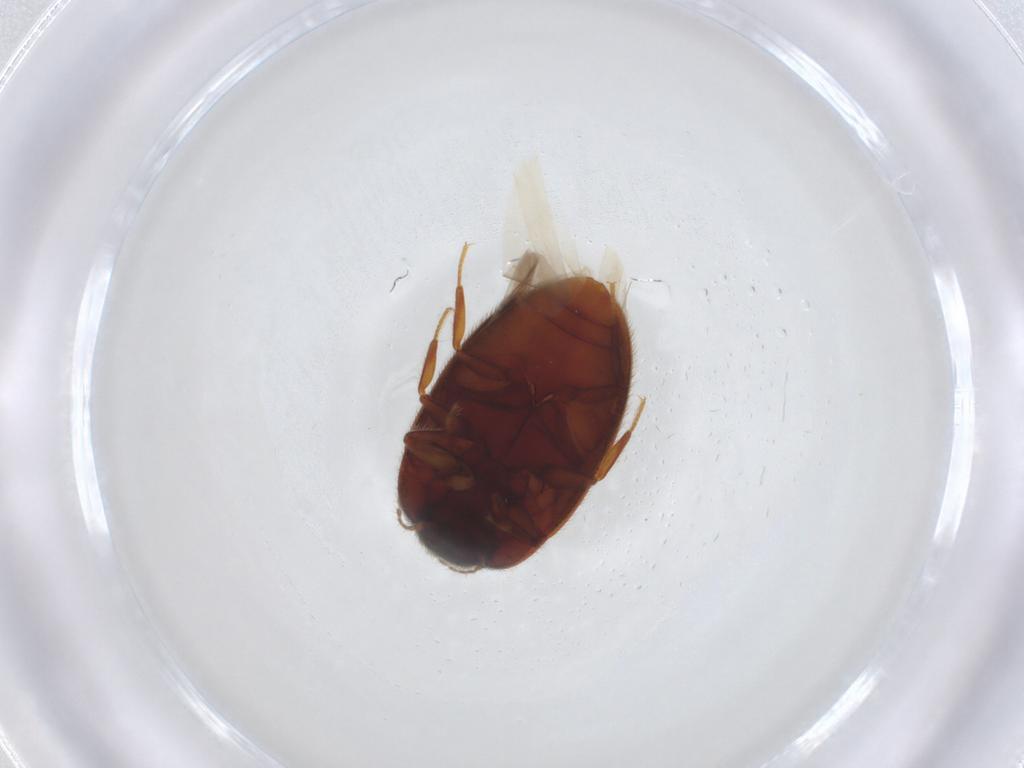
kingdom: Animalia
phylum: Arthropoda
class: Insecta
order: Coleoptera
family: Limnichidae
